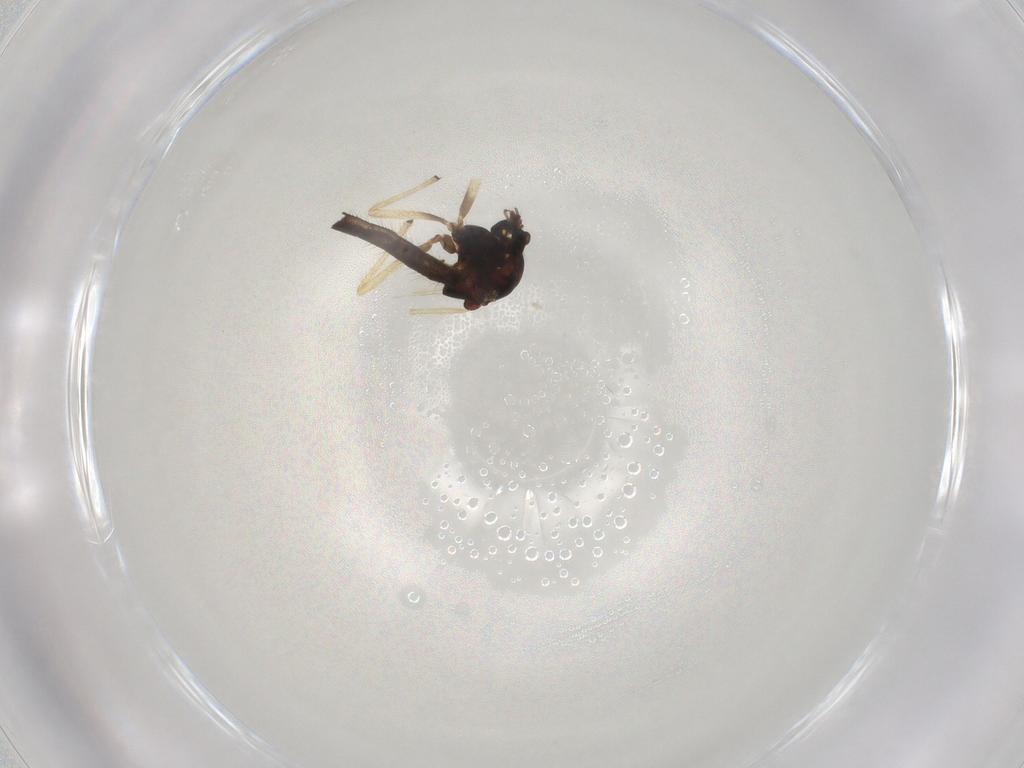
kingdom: Animalia
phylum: Arthropoda
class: Insecta
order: Diptera
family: Chironomidae
